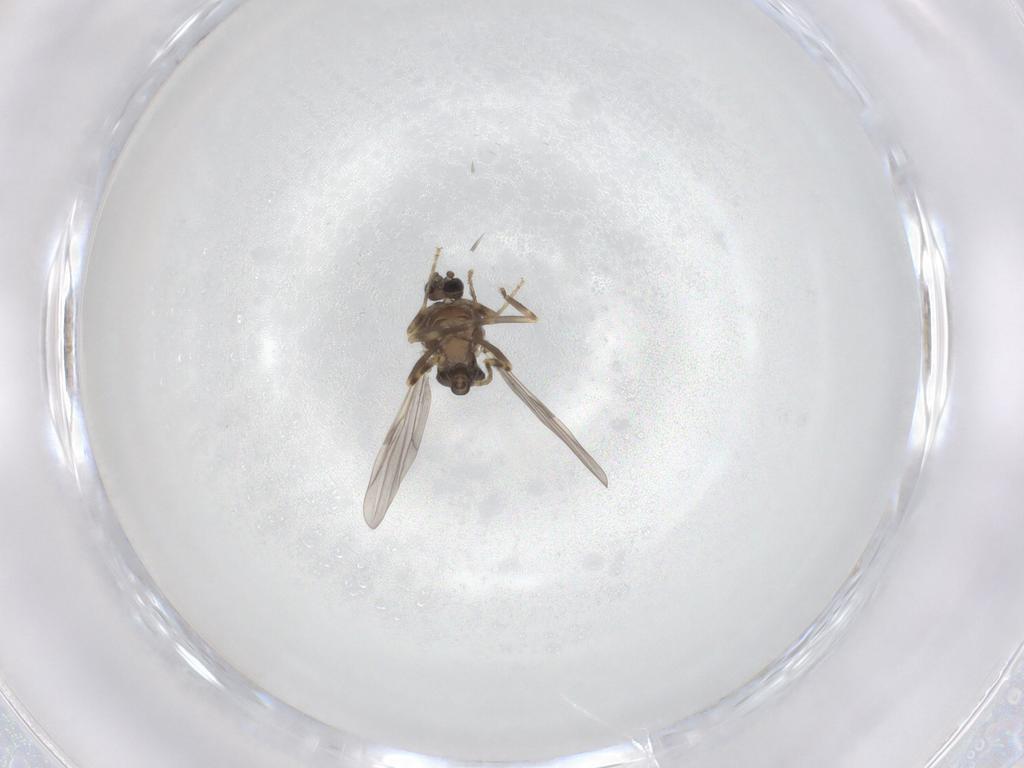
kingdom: Animalia
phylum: Arthropoda
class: Insecta
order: Diptera
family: Ceratopogonidae
